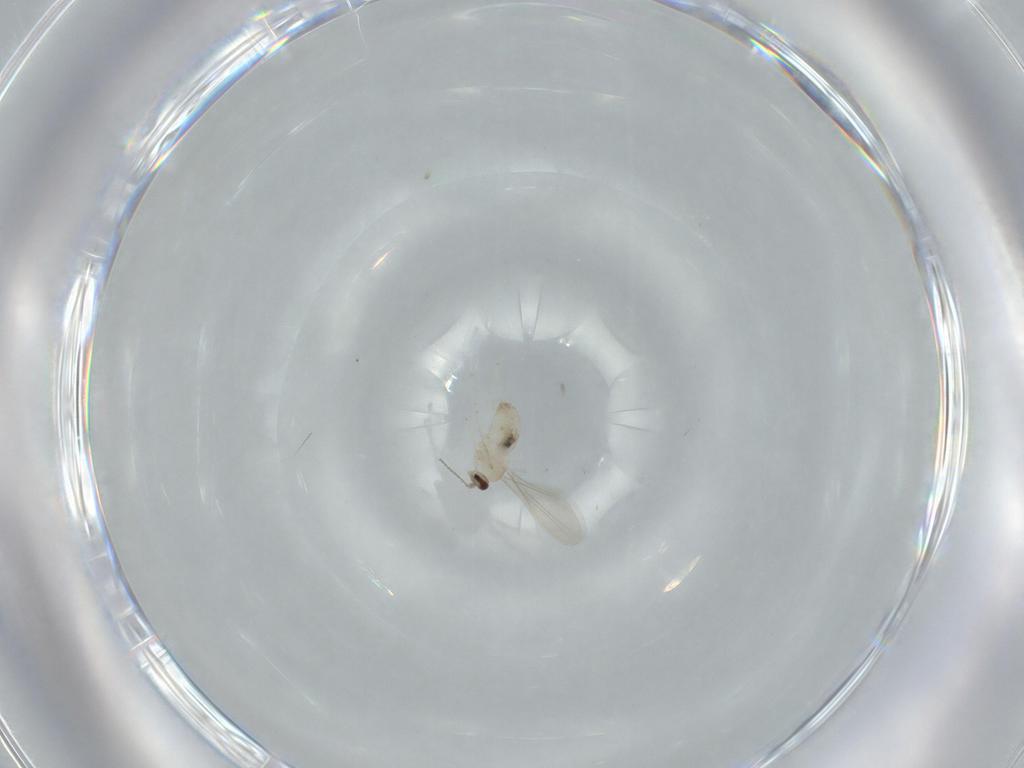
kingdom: Animalia
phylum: Arthropoda
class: Insecta
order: Diptera
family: Cecidomyiidae
